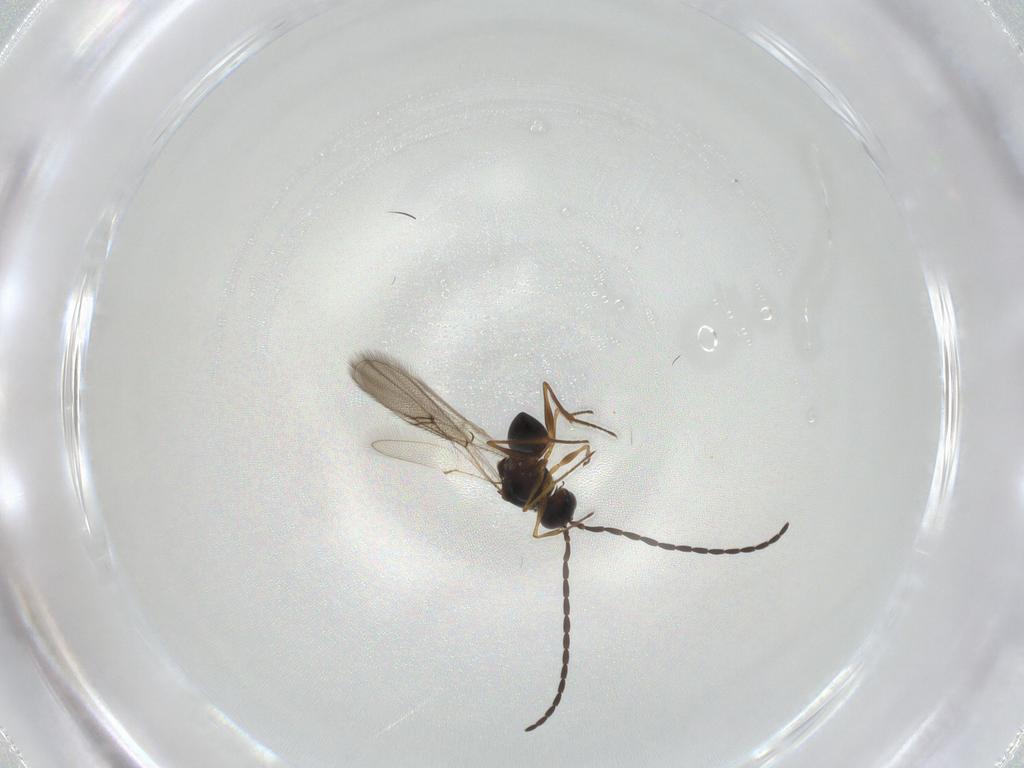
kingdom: Animalia
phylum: Arthropoda
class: Insecta
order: Hymenoptera
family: Figitidae
